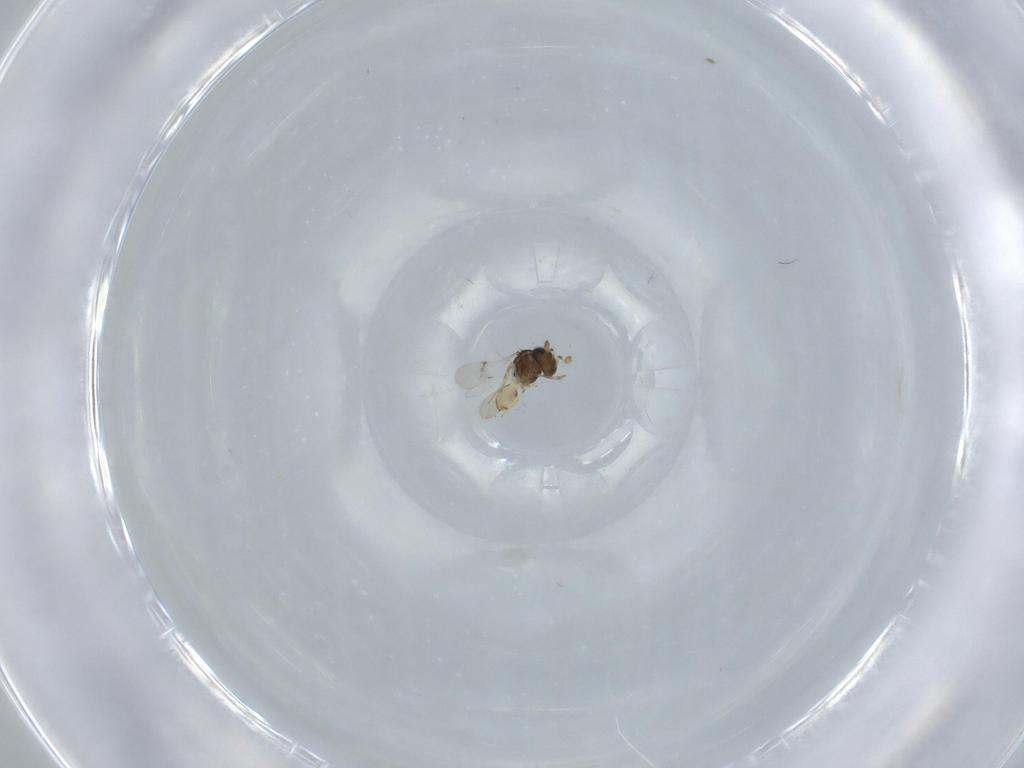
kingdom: Animalia
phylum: Arthropoda
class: Insecta
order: Hymenoptera
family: Scelionidae
